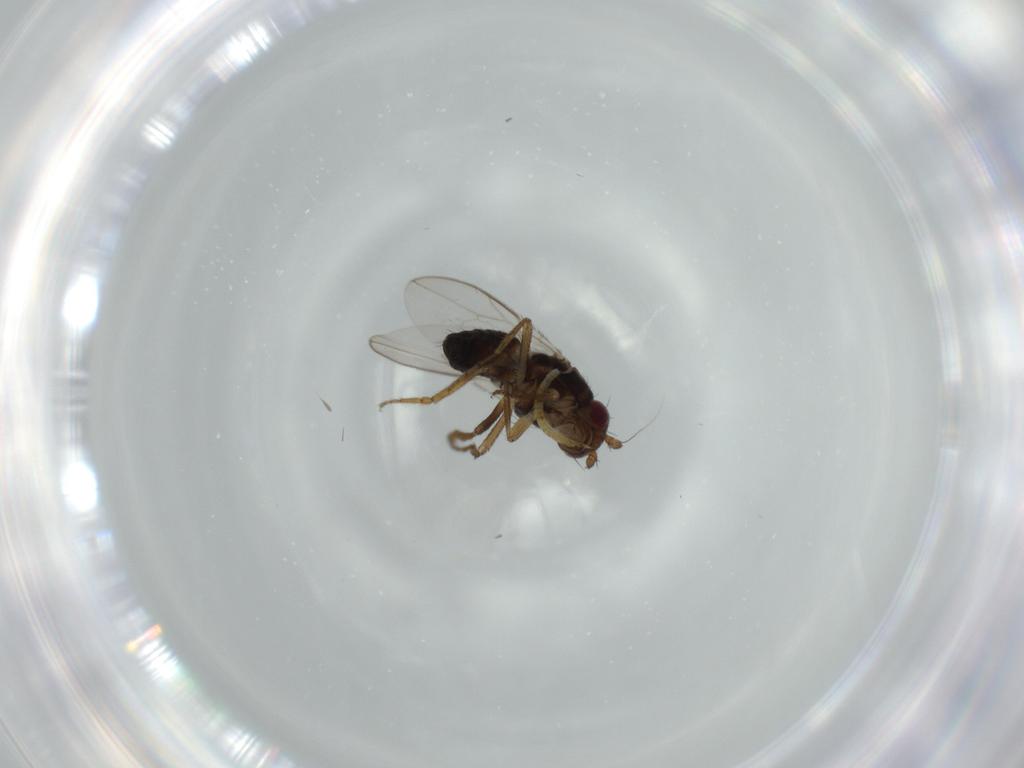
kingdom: Animalia
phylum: Arthropoda
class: Insecta
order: Diptera
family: Sphaeroceridae
